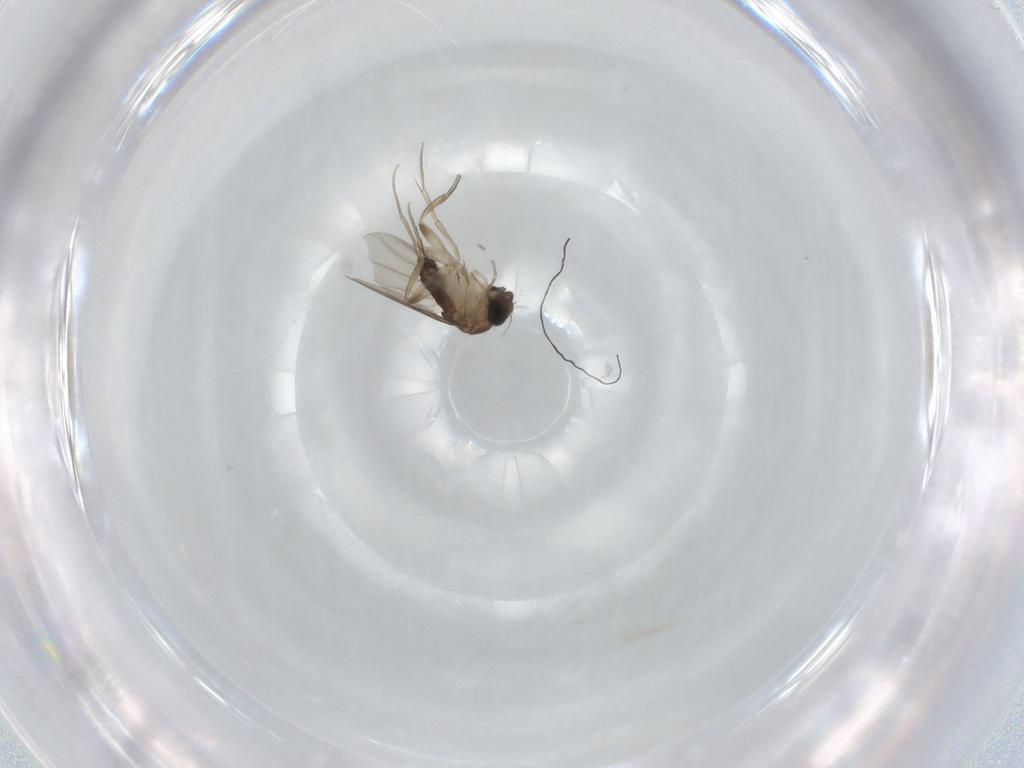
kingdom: Animalia
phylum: Arthropoda
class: Insecta
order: Diptera
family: Phoridae
